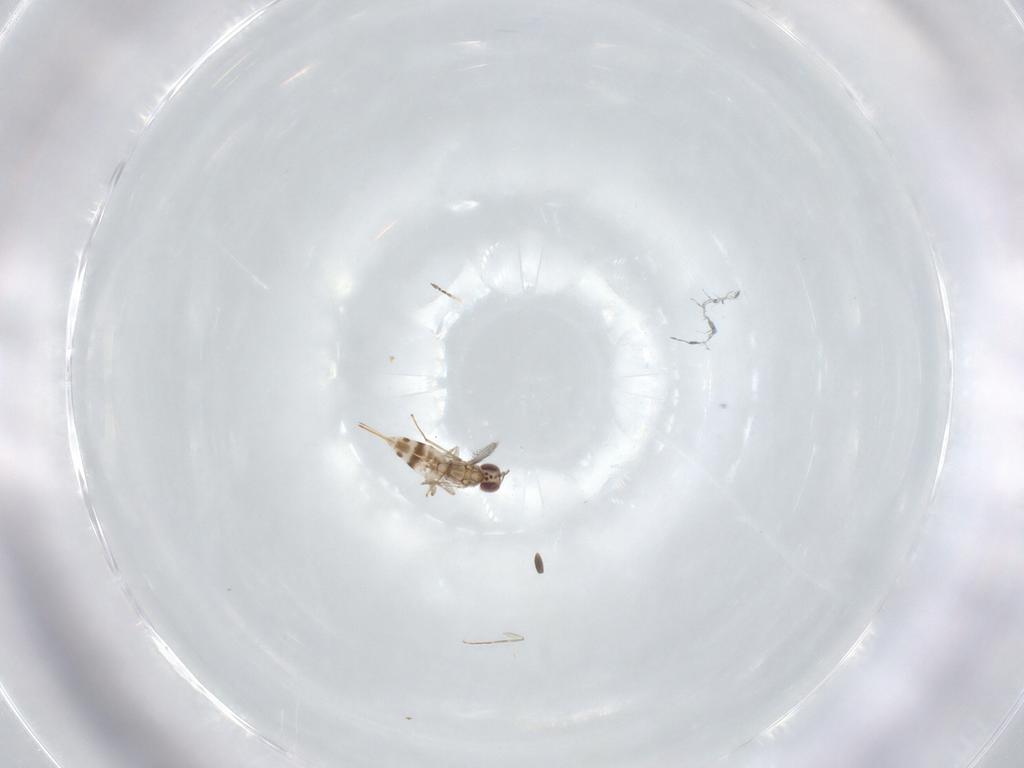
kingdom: Animalia
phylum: Arthropoda
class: Insecta
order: Hymenoptera
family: Mymaridae
